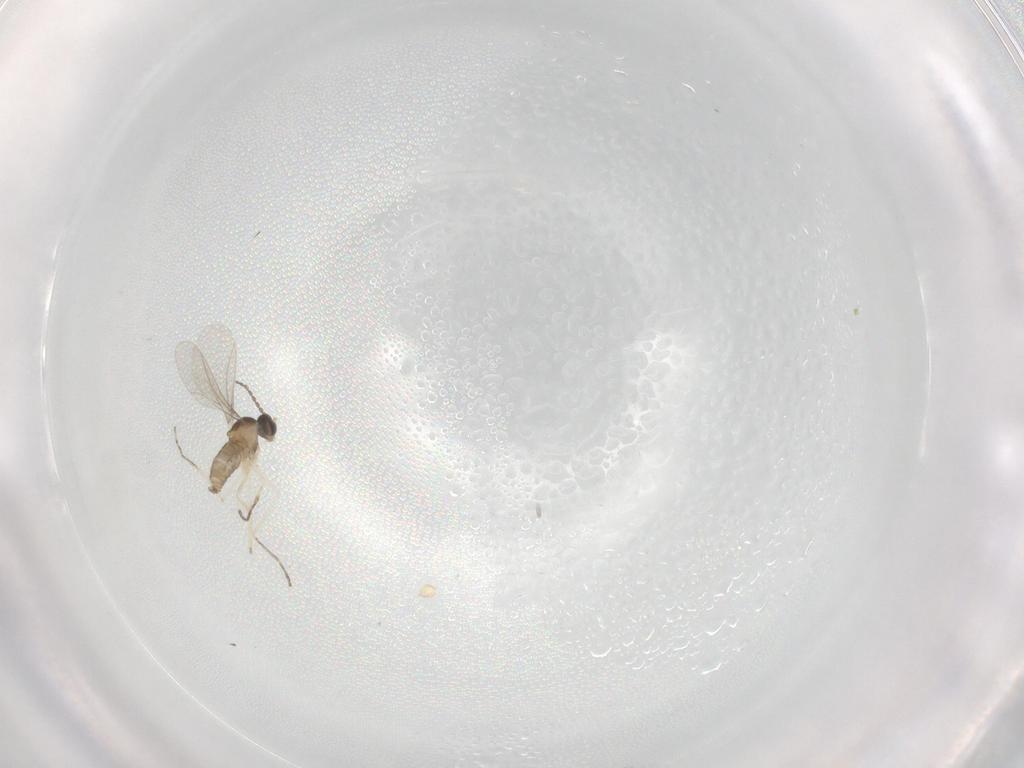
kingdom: Animalia
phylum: Arthropoda
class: Insecta
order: Diptera
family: Cecidomyiidae
